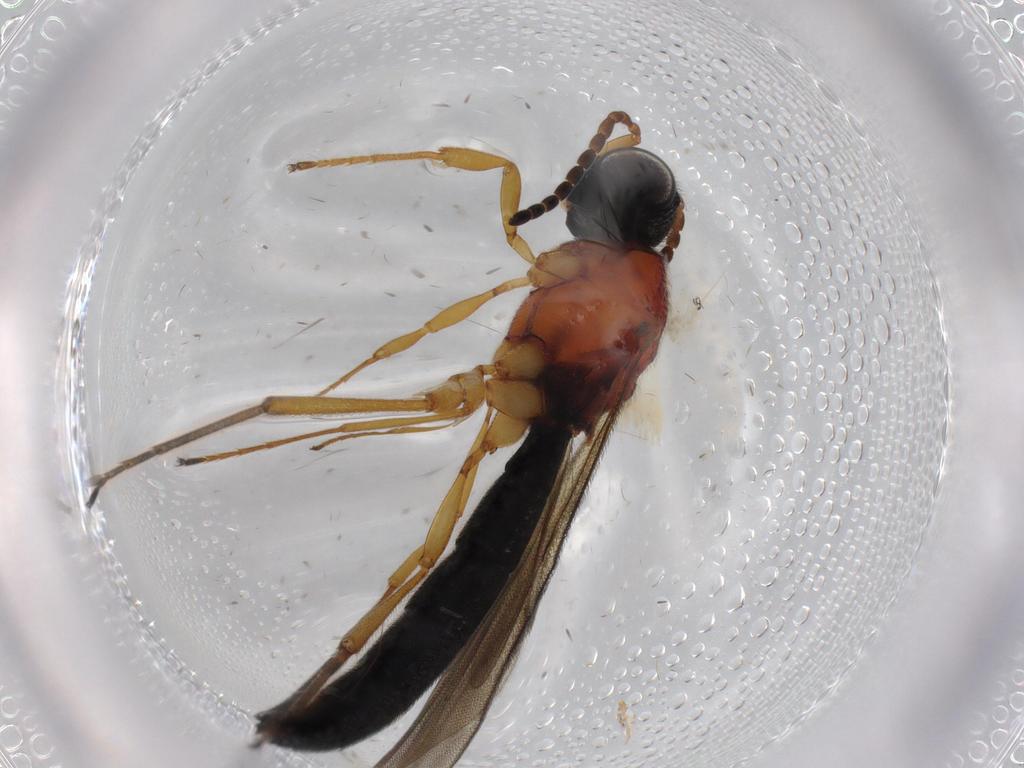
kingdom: Animalia
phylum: Arthropoda
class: Insecta
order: Hymenoptera
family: Scelionidae
